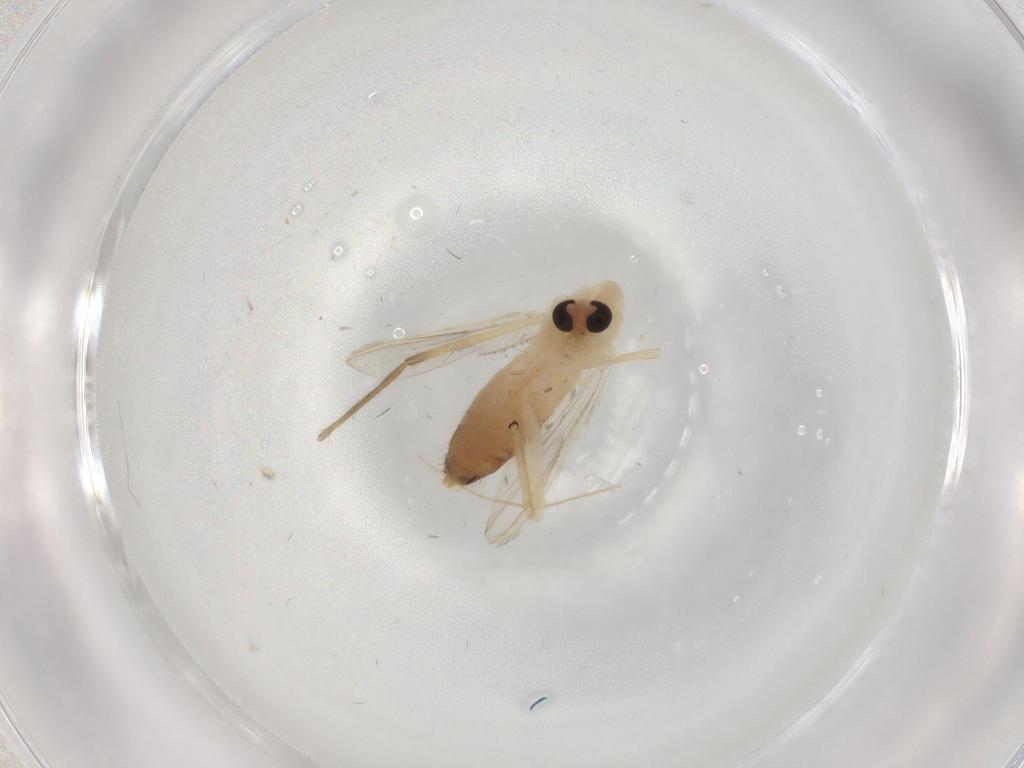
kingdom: Animalia
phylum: Arthropoda
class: Insecta
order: Diptera
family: Chironomidae
